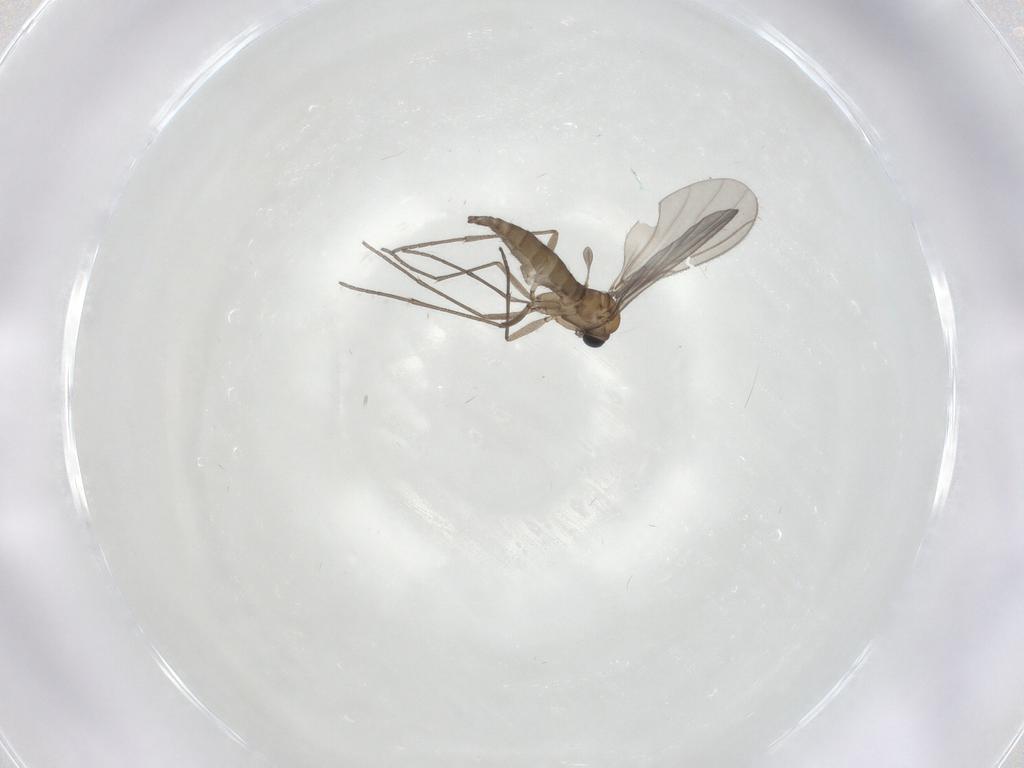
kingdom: Animalia
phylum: Arthropoda
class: Insecta
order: Diptera
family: Sciaridae
